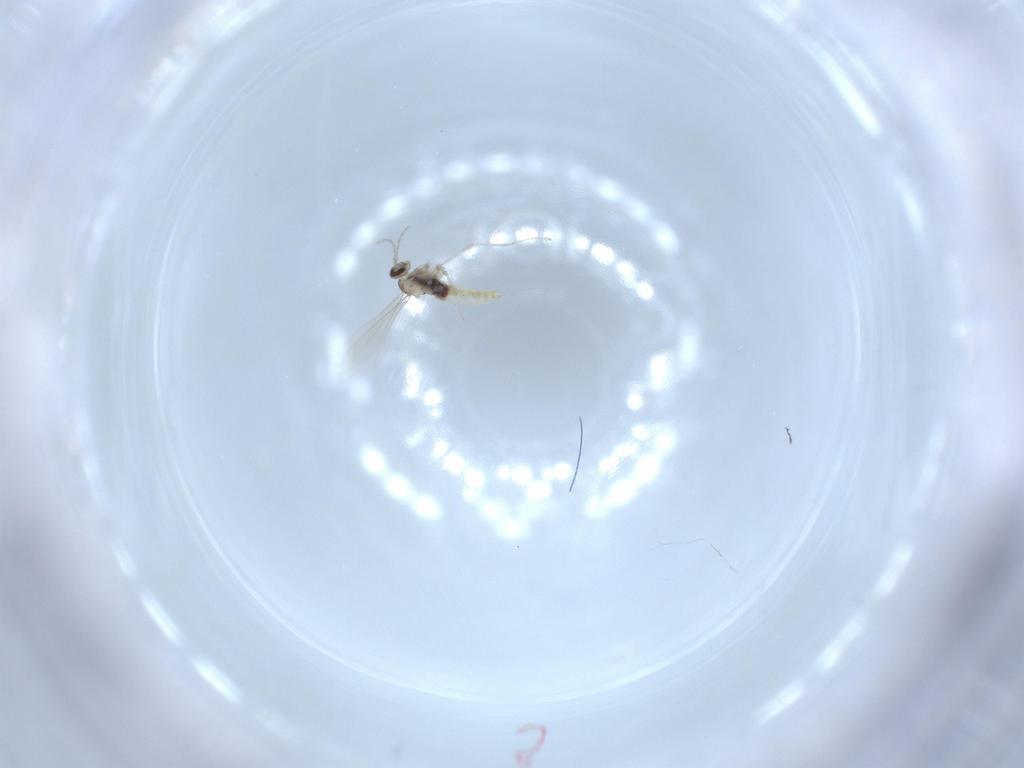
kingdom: Animalia
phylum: Arthropoda
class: Insecta
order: Diptera
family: Cecidomyiidae
